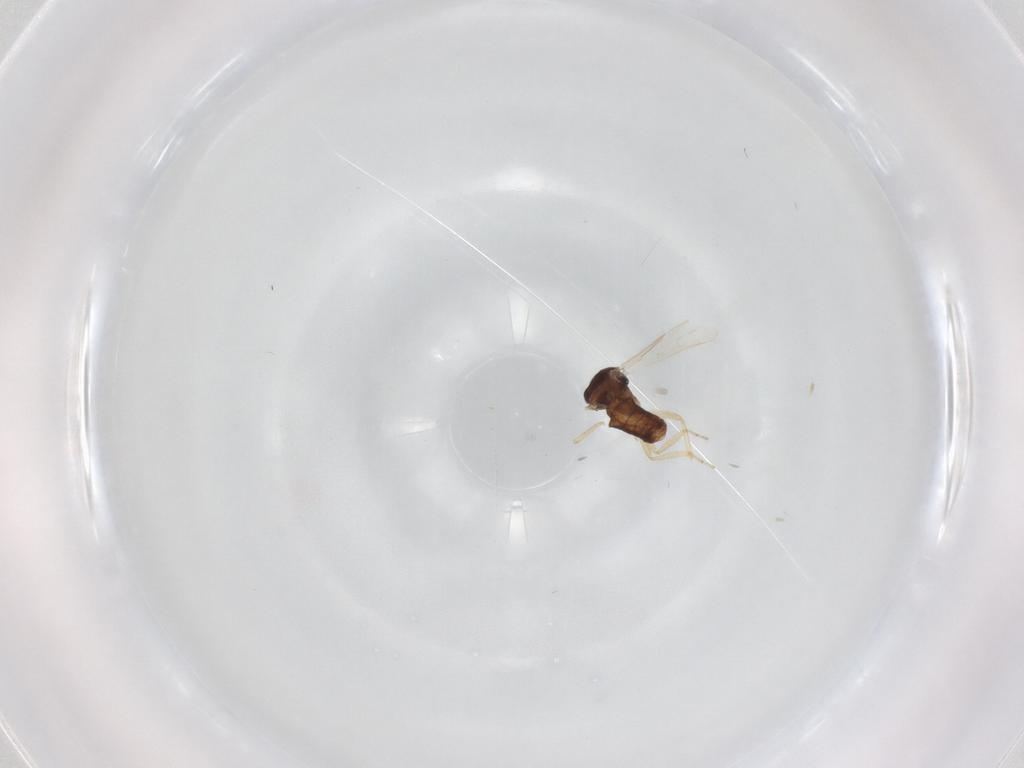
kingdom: Animalia
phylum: Arthropoda
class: Insecta
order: Diptera
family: Ceratopogonidae
